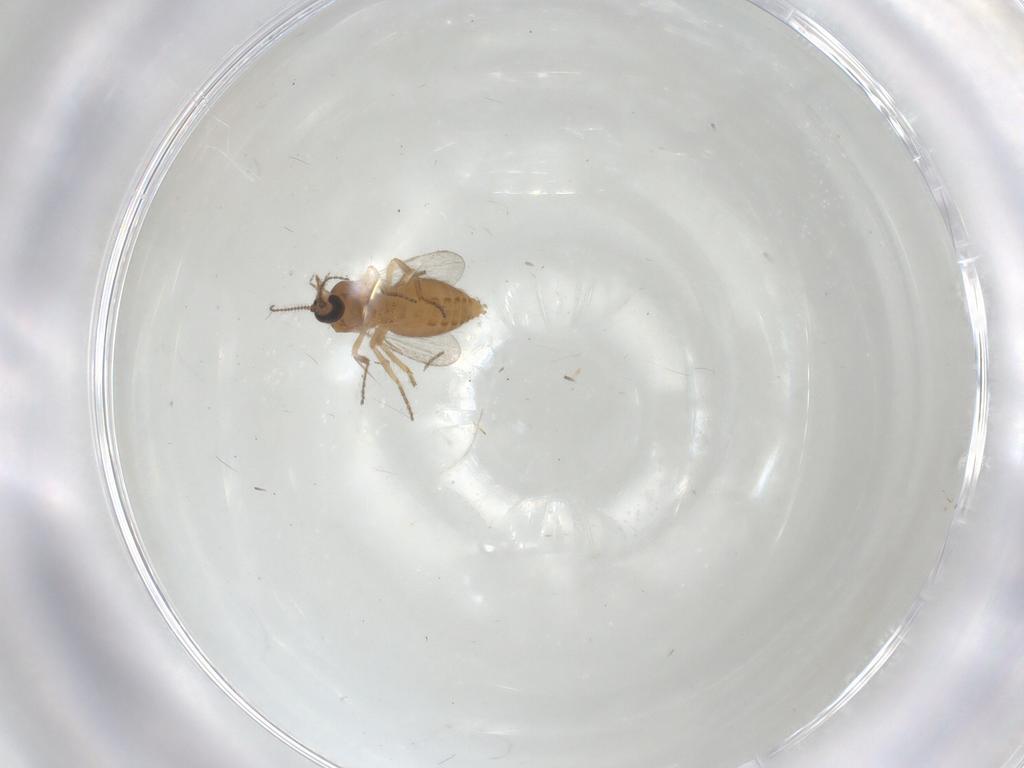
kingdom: Animalia
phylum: Arthropoda
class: Insecta
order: Diptera
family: Ceratopogonidae
